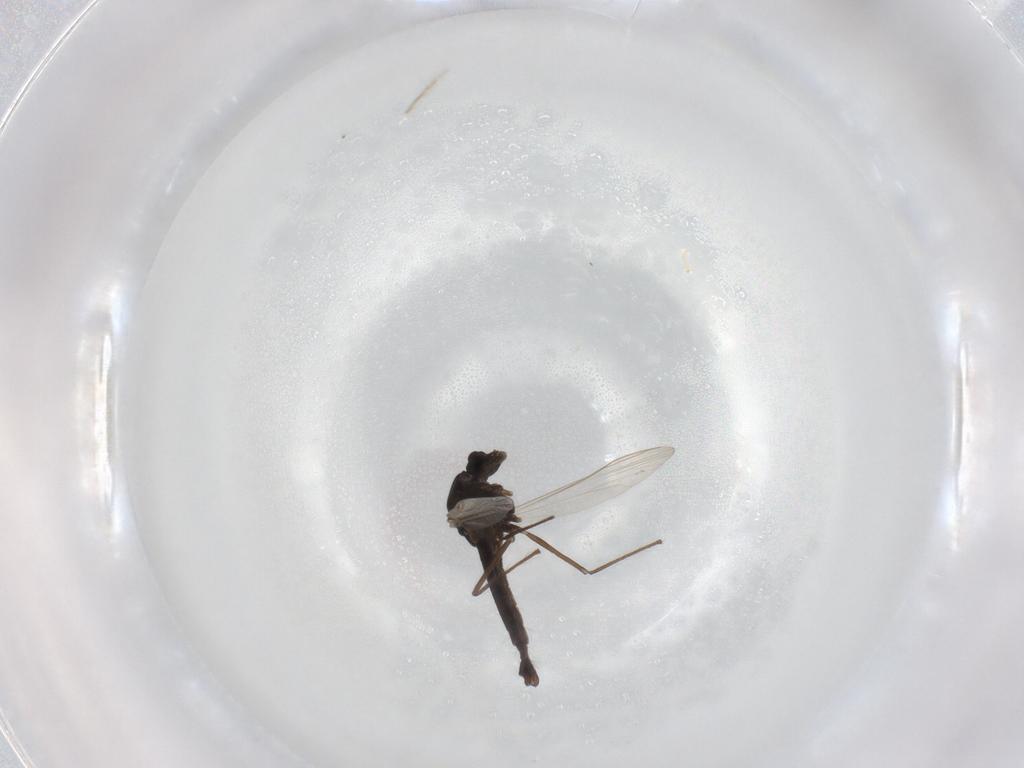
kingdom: Animalia
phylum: Arthropoda
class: Insecta
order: Diptera
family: Chironomidae
